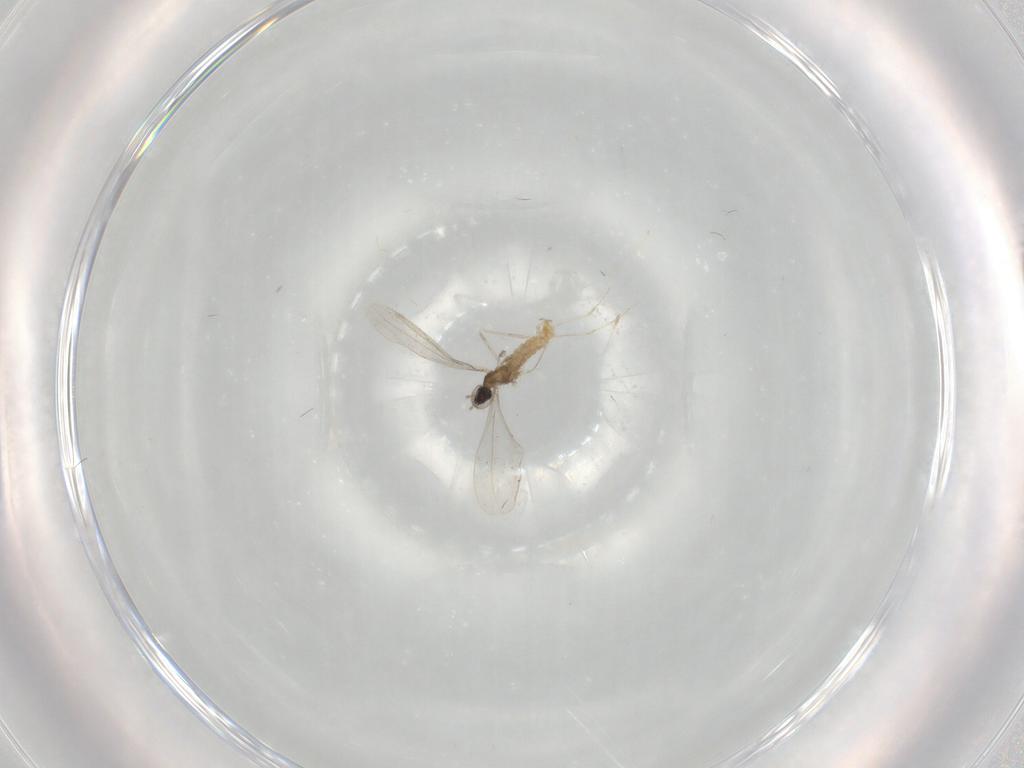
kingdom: Animalia
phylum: Arthropoda
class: Insecta
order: Diptera
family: Cecidomyiidae
